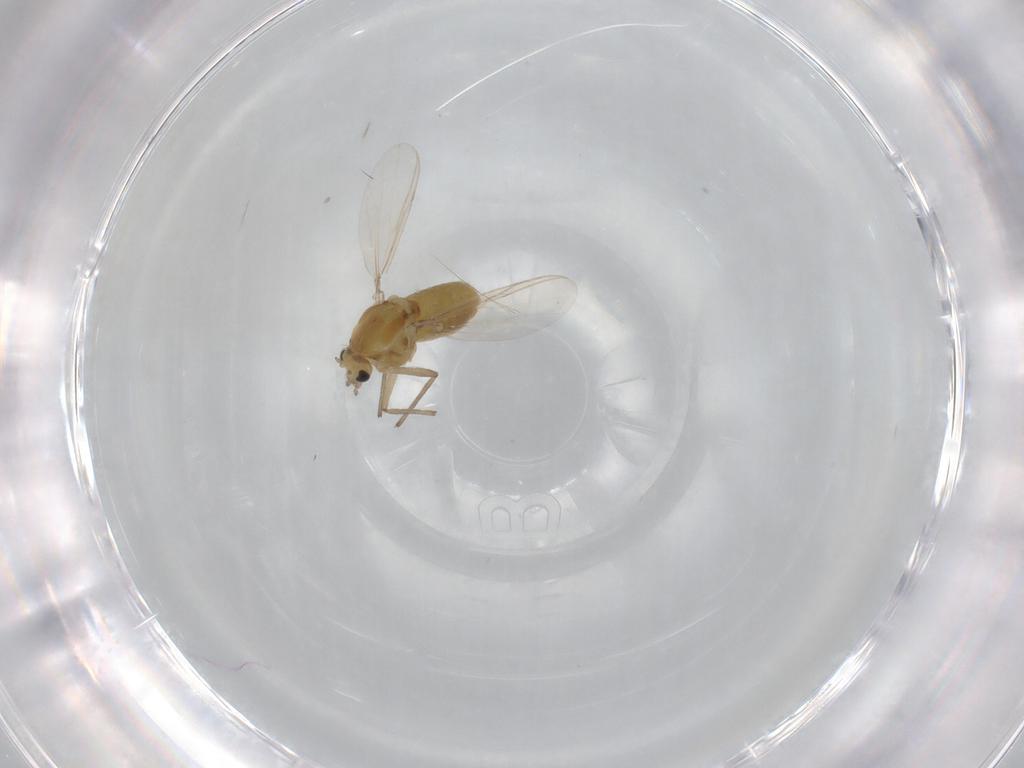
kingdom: Animalia
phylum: Arthropoda
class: Insecta
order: Diptera
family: Chironomidae
